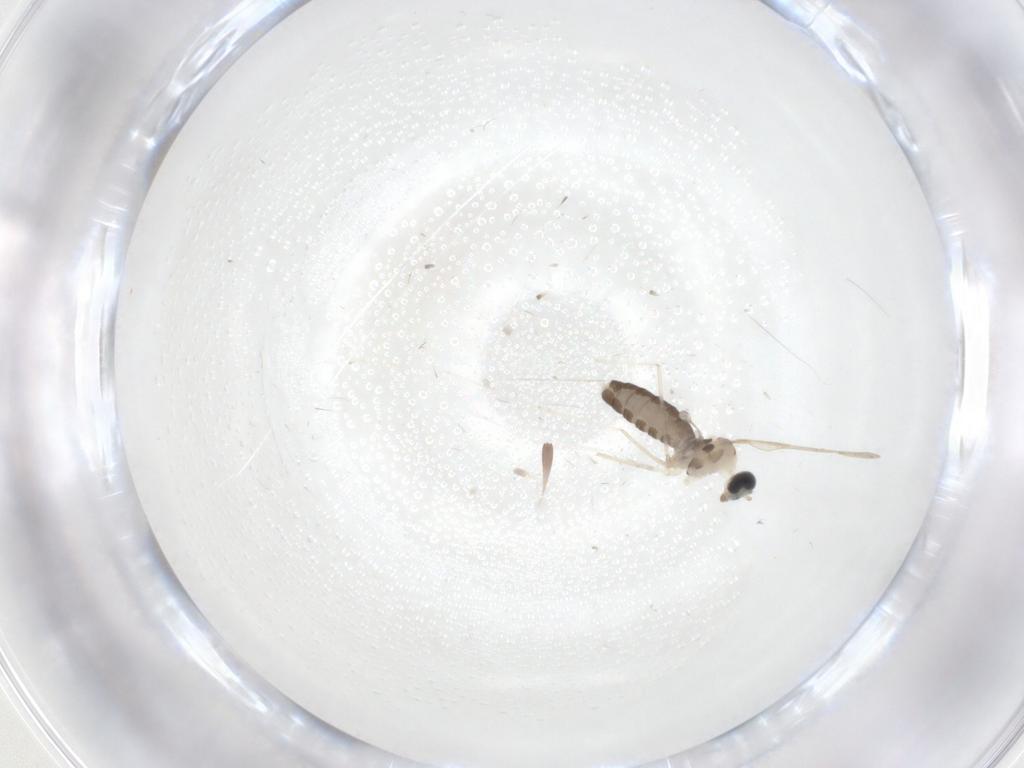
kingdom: Animalia
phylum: Arthropoda
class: Insecta
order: Diptera
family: Cecidomyiidae
